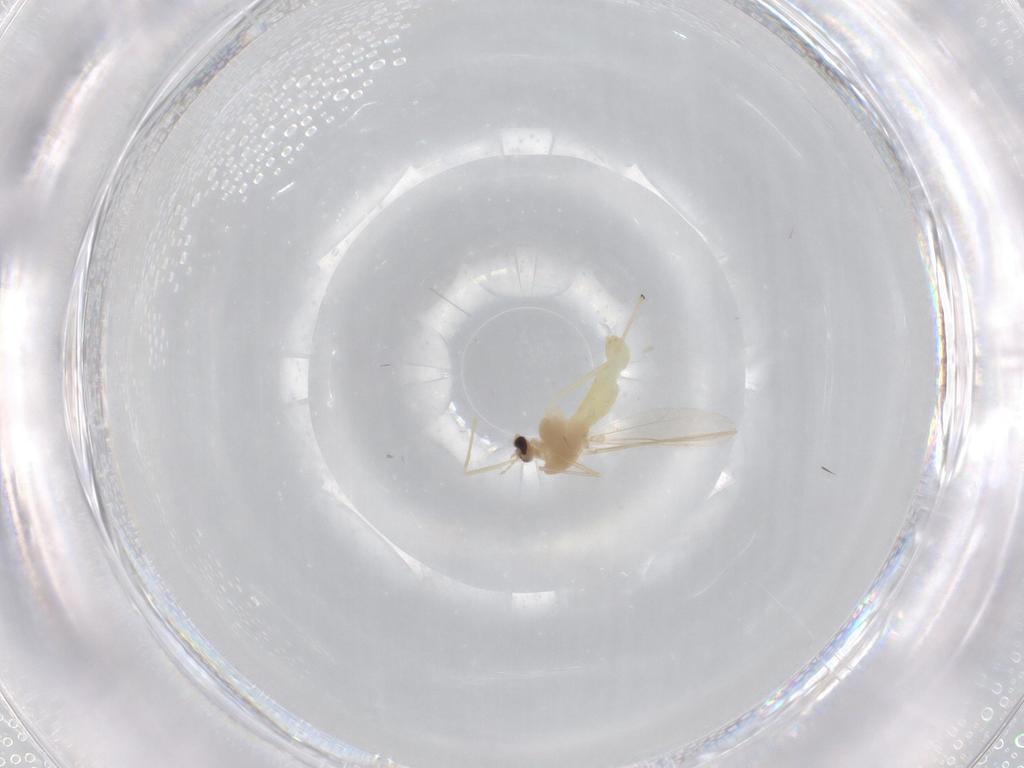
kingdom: Animalia
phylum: Arthropoda
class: Insecta
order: Diptera
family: Chironomidae
